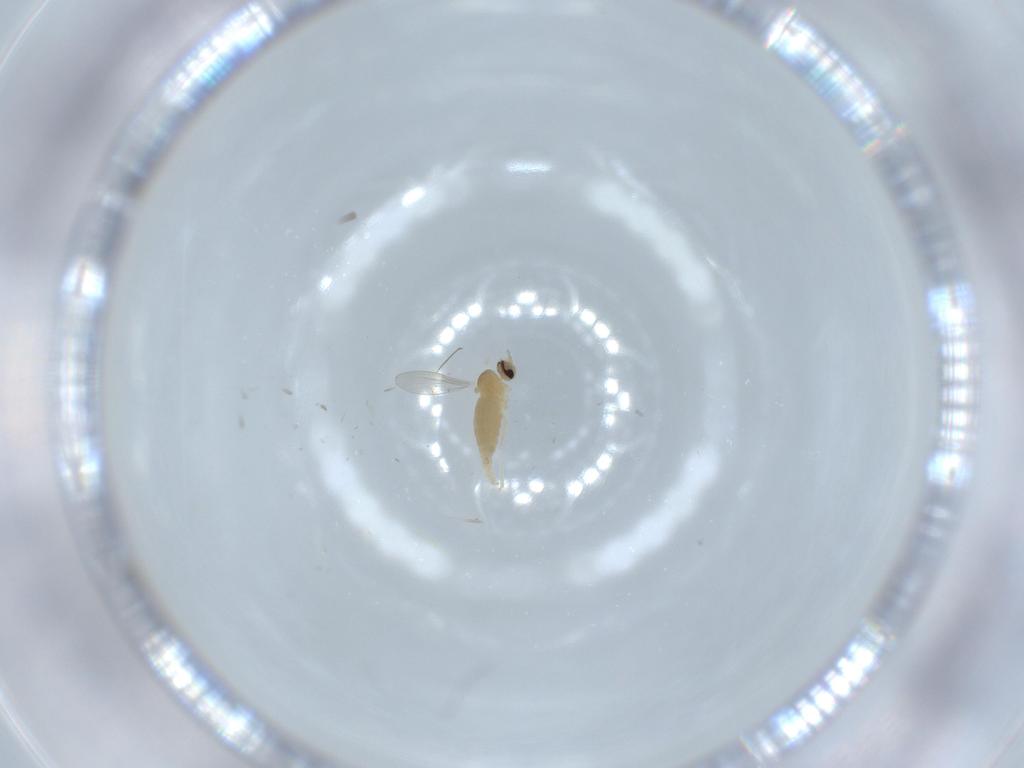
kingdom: Animalia
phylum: Arthropoda
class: Insecta
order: Diptera
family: Cecidomyiidae
